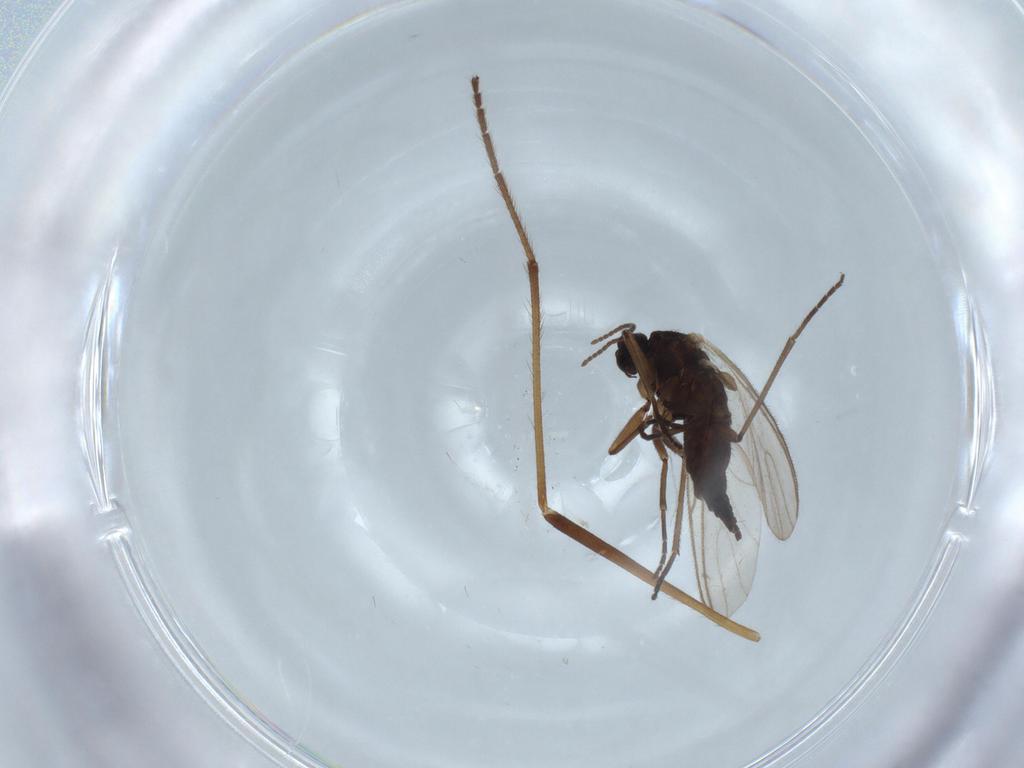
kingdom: Animalia
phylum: Arthropoda
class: Insecta
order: Diptera
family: Sciaridae
